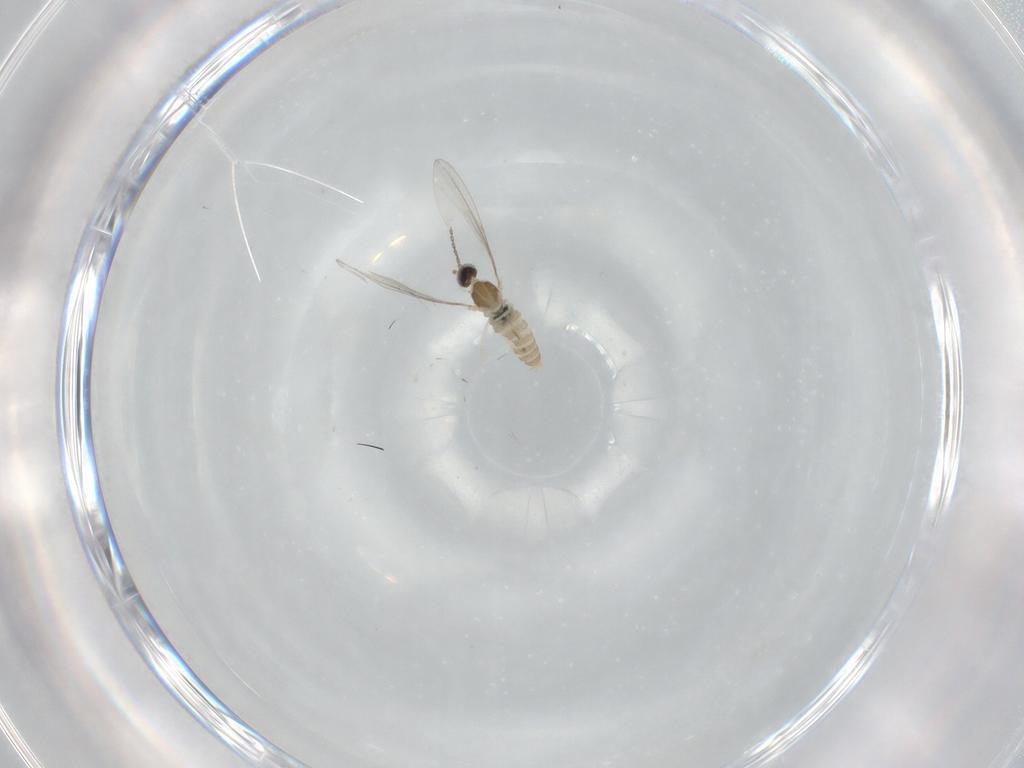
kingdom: Animalia
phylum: Arthropoda
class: Insecta
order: Diptera
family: Cecidomyiidae
